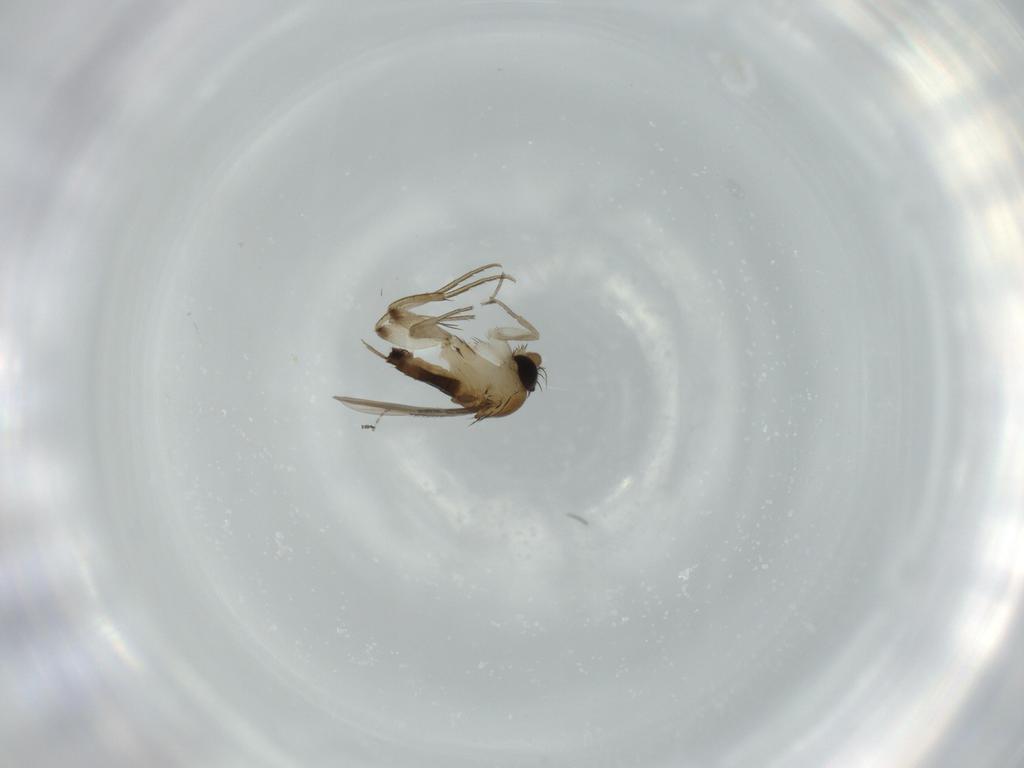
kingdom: Animalia
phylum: Arthropoda
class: Insecta
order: Diptera
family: Phoridae
